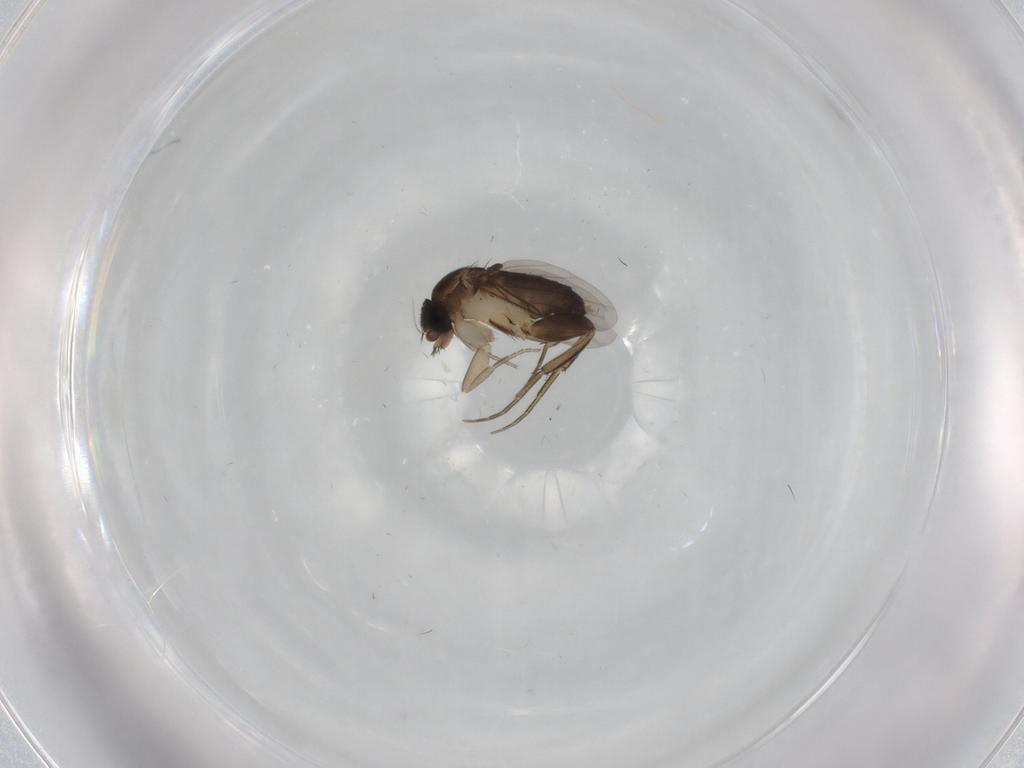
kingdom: Animalia
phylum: Arthropoda
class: Insecta
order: Diptera
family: Phoridae
